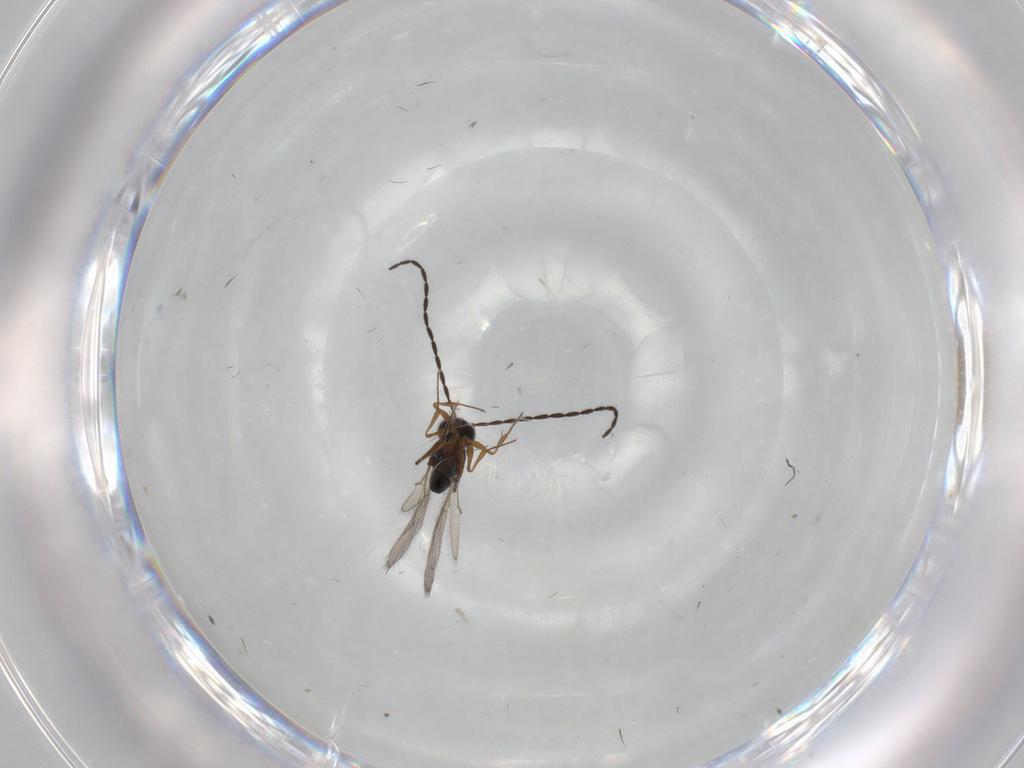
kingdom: Animalia
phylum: Arthropoda
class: Insecta
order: Hymenoptera
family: Figitidae
